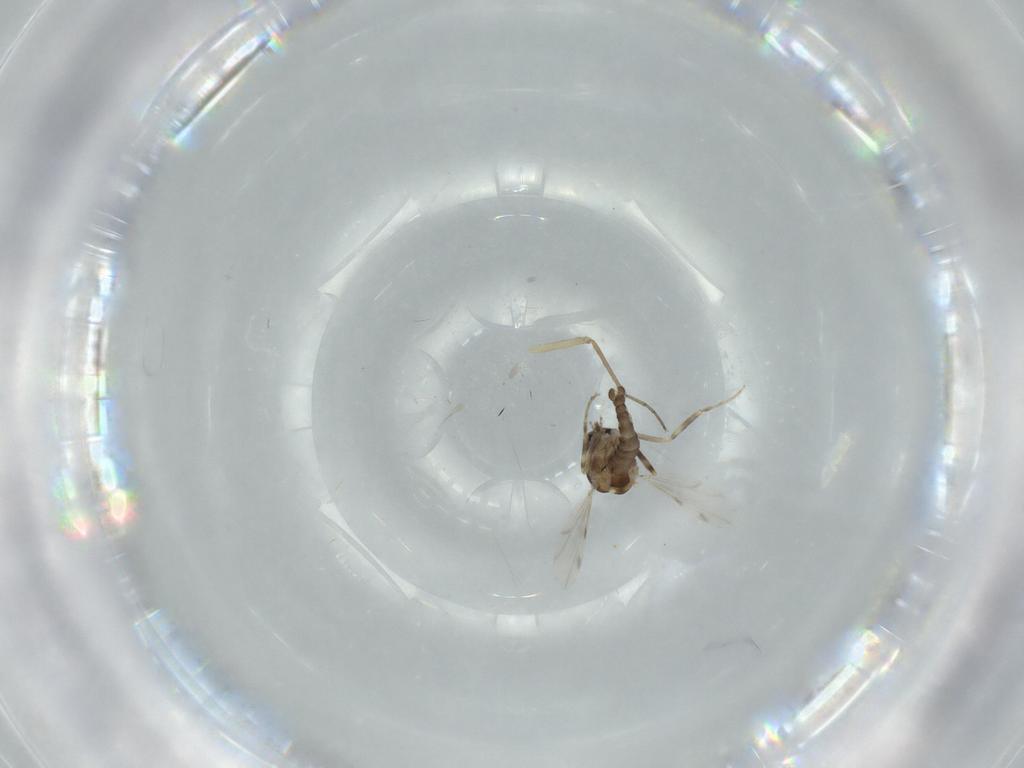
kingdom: Animalia
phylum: Arthropoda
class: Insecta
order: Diptera
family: Ceratopogonidae
